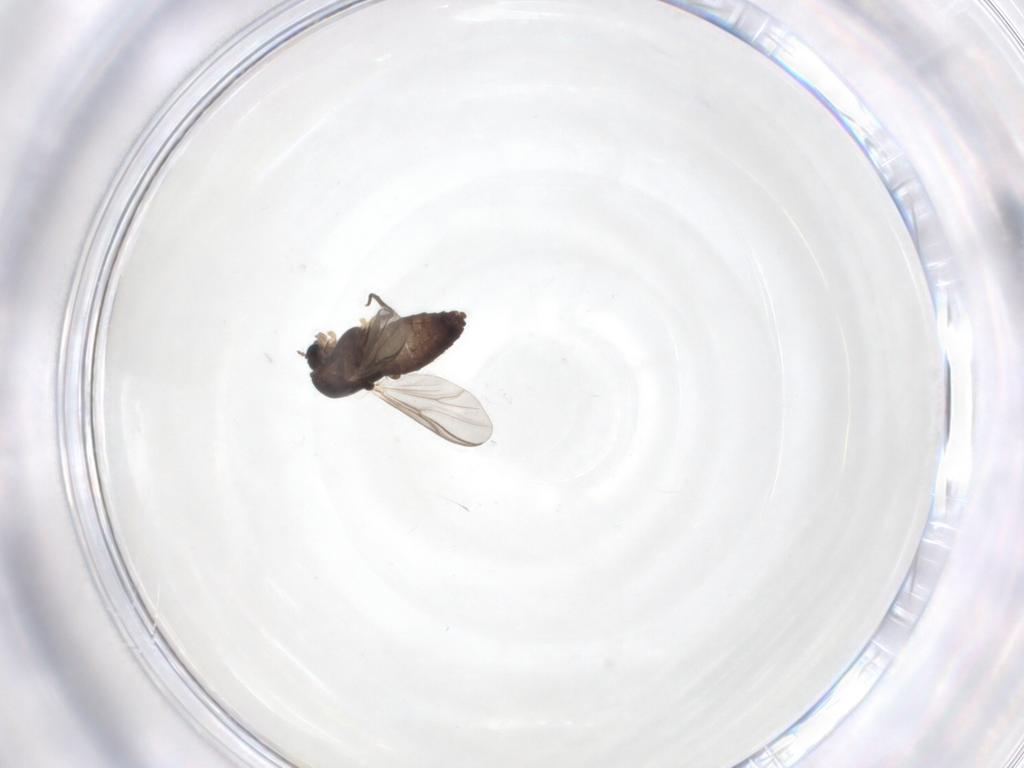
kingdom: Animalia
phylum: Arthropoda
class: Insecta
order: Diptera
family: Chironomidae
